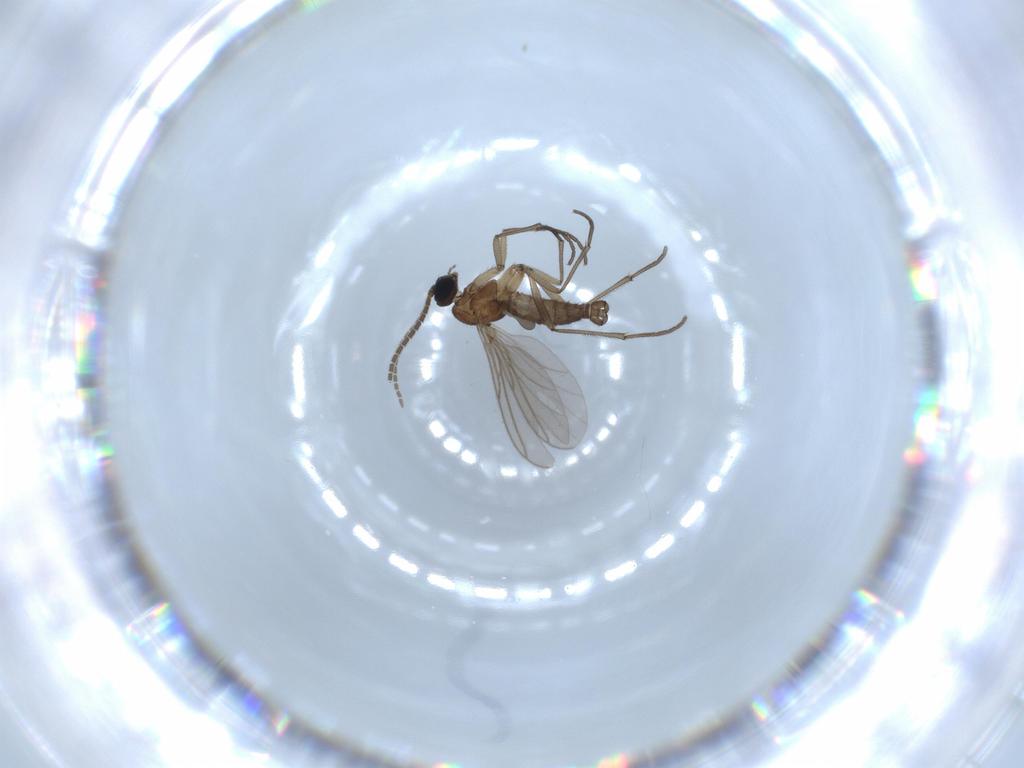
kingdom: Animalia
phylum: Arthropoda
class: Insecta
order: Diptera
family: Sciaridae
